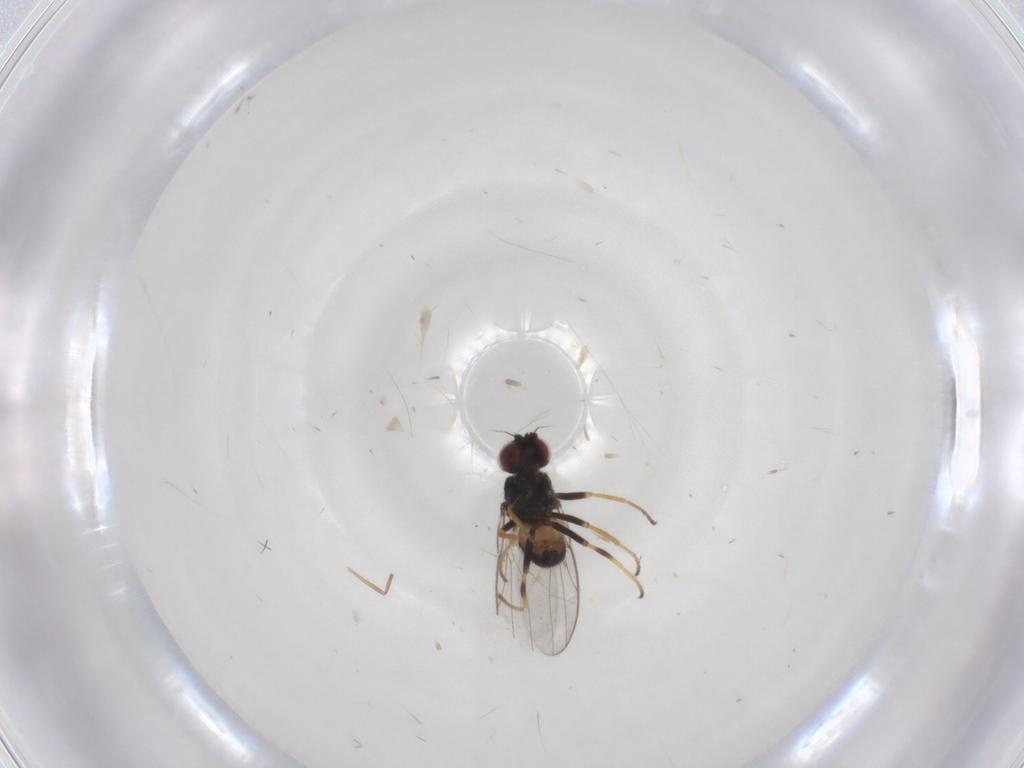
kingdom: Animalia
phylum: Arthropoda
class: Insecta
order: Diptera
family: Chloropidae
